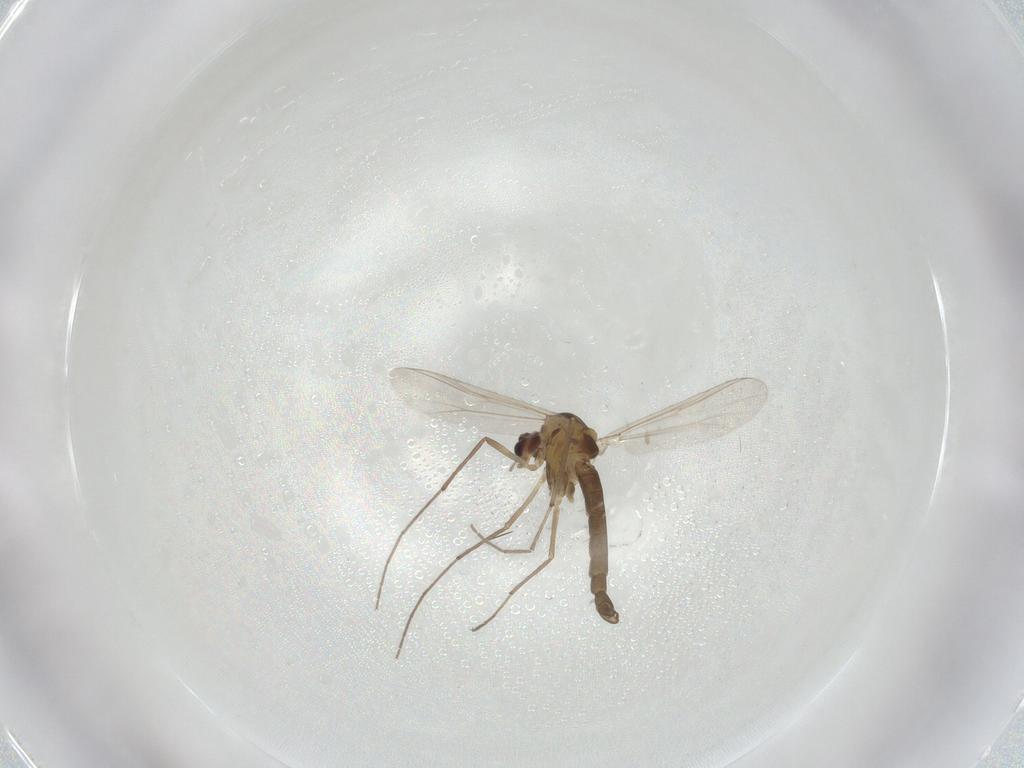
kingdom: Animalia
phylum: Arthropoda
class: Insecta
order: Diptera
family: Chironomidae
